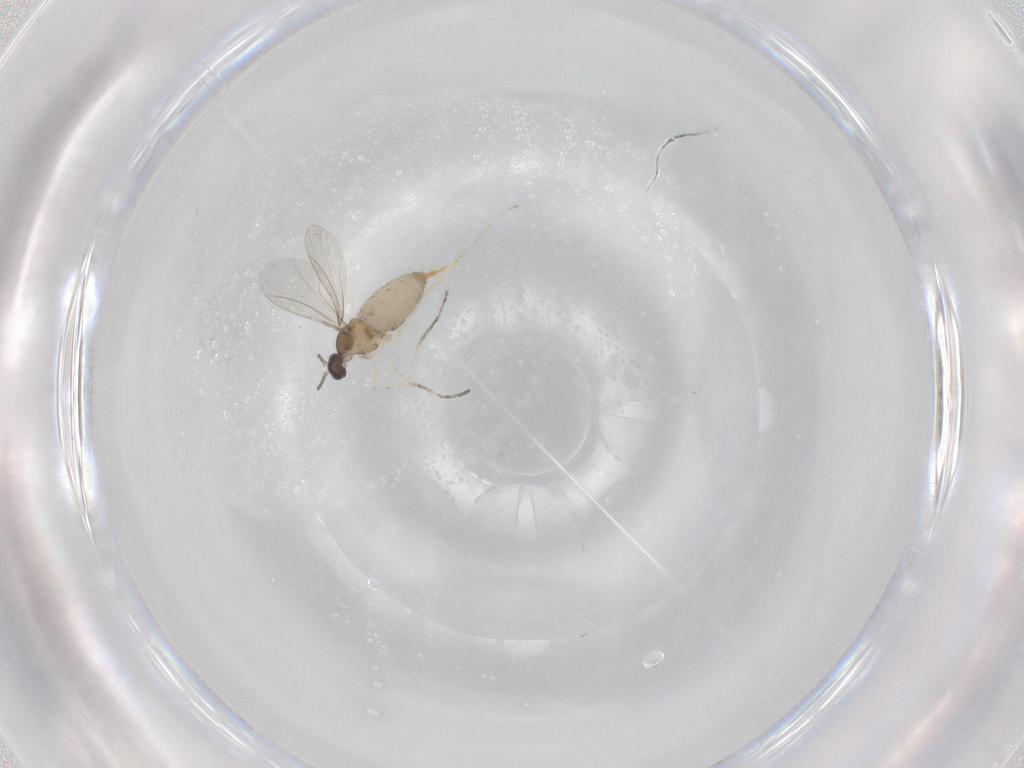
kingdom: Animalia
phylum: Arthropoda
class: Insecta
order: Diptera
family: Cecidomyiidae
